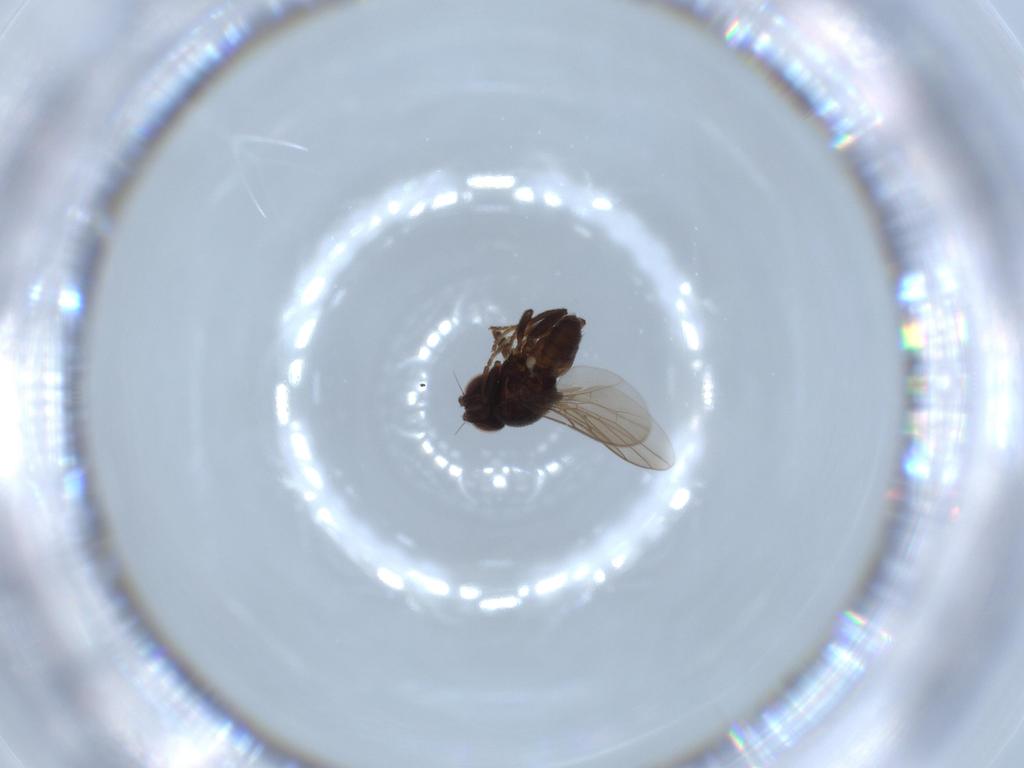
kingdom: Animalia
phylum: Arthropoda
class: Insecta
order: Diptera
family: Chloropidae
